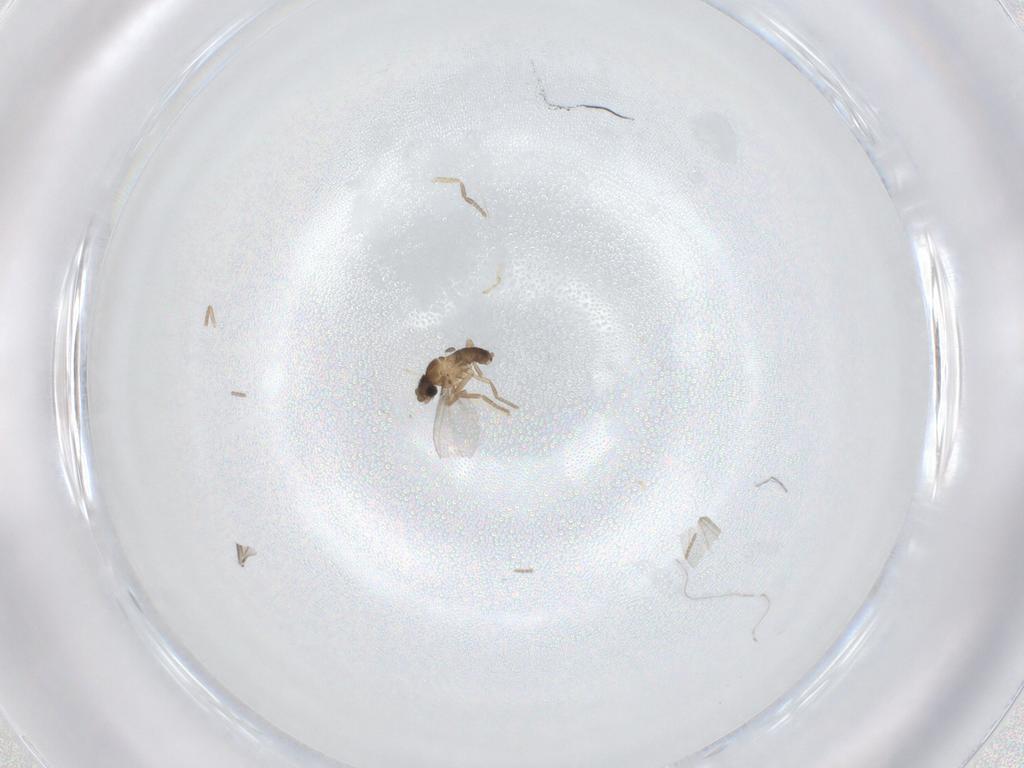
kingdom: Animalia
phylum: Arthropoda
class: Insecta
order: Diptera
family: Phoridae
